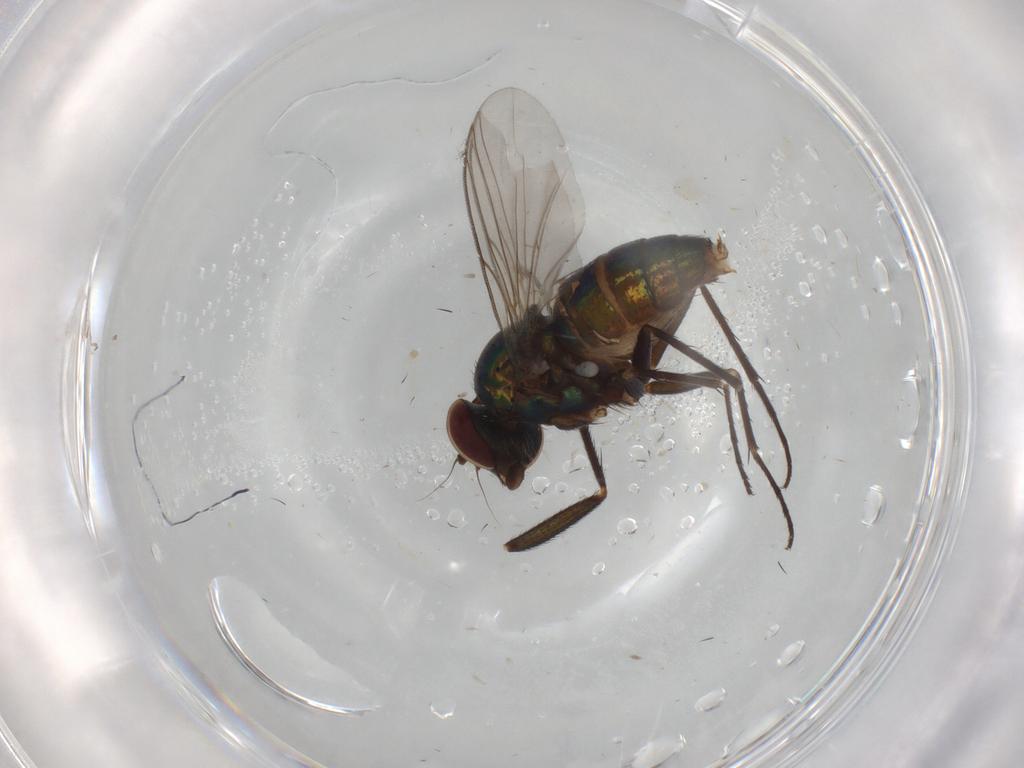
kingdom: Animalia
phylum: Arthropoda
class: Insecta
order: Diptera
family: Dolichopodidae
